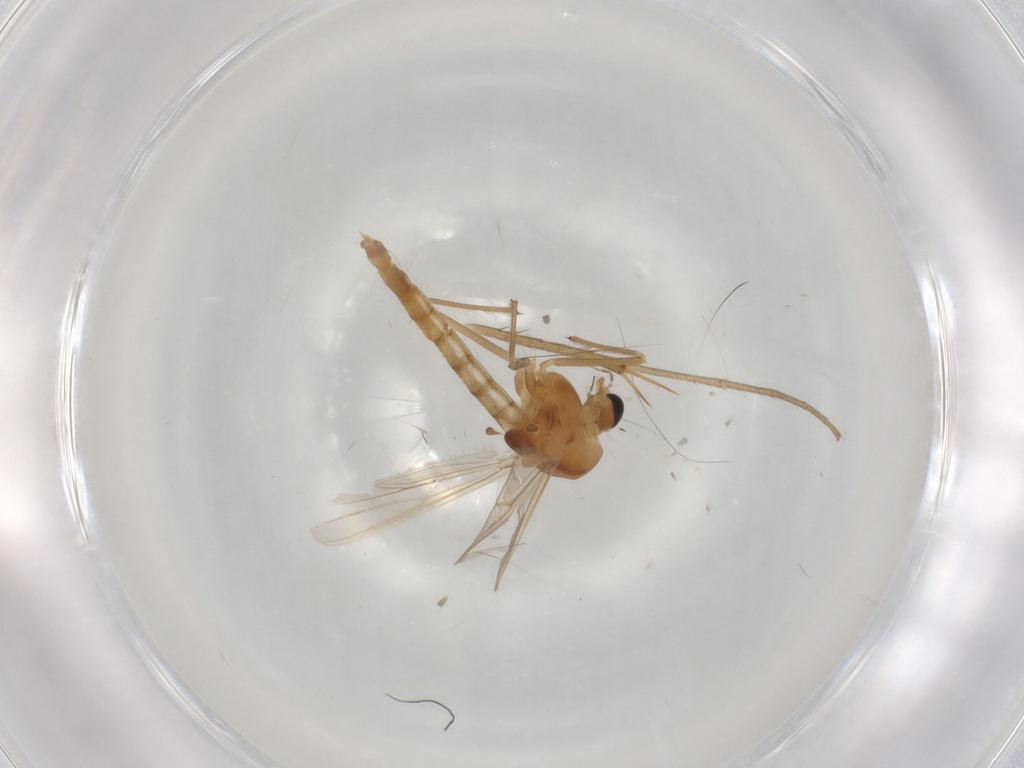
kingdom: Animalia
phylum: Arthropoda
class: Insecta
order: Diptera
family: Chironomidae
